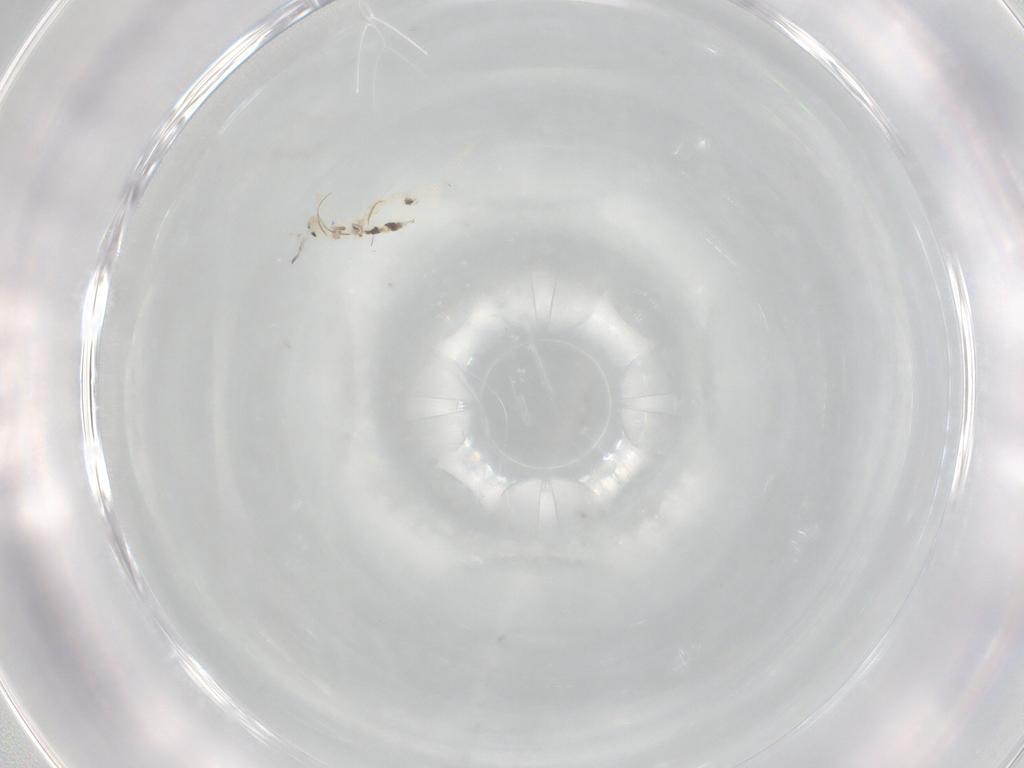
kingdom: Animalia
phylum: Arthropoda
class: Collembola
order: Entomobryomorpha
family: Entomobryidae
